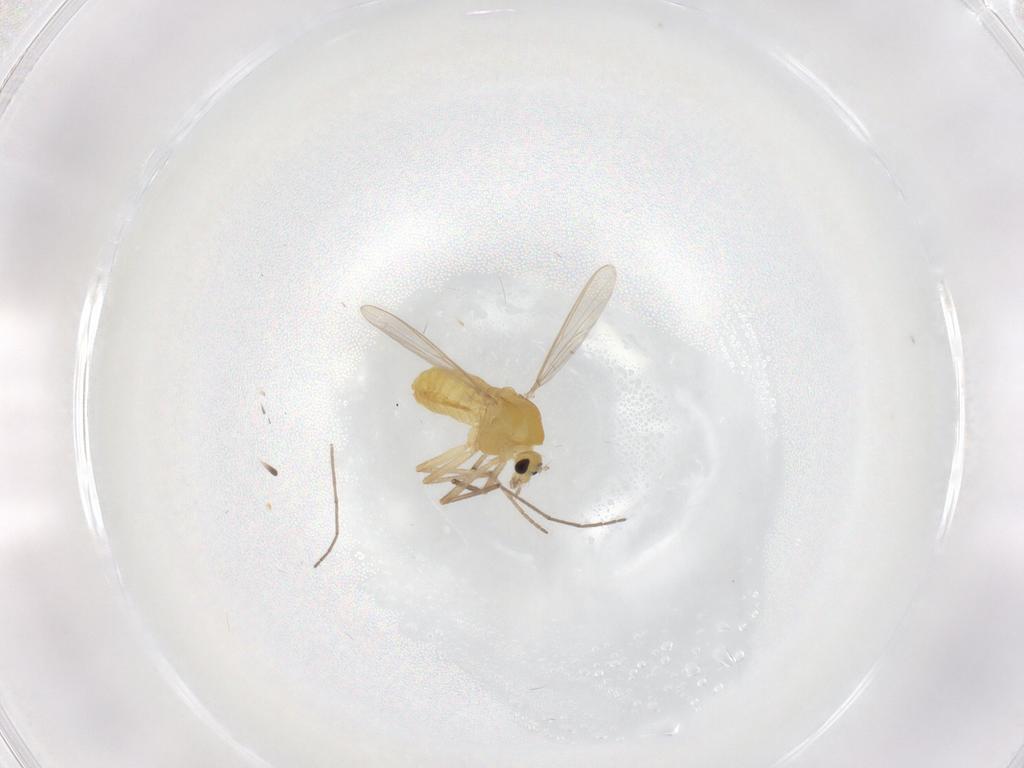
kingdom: Animalia
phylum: Arthropoda
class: Insecta
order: Diptera
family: Chironomidae
